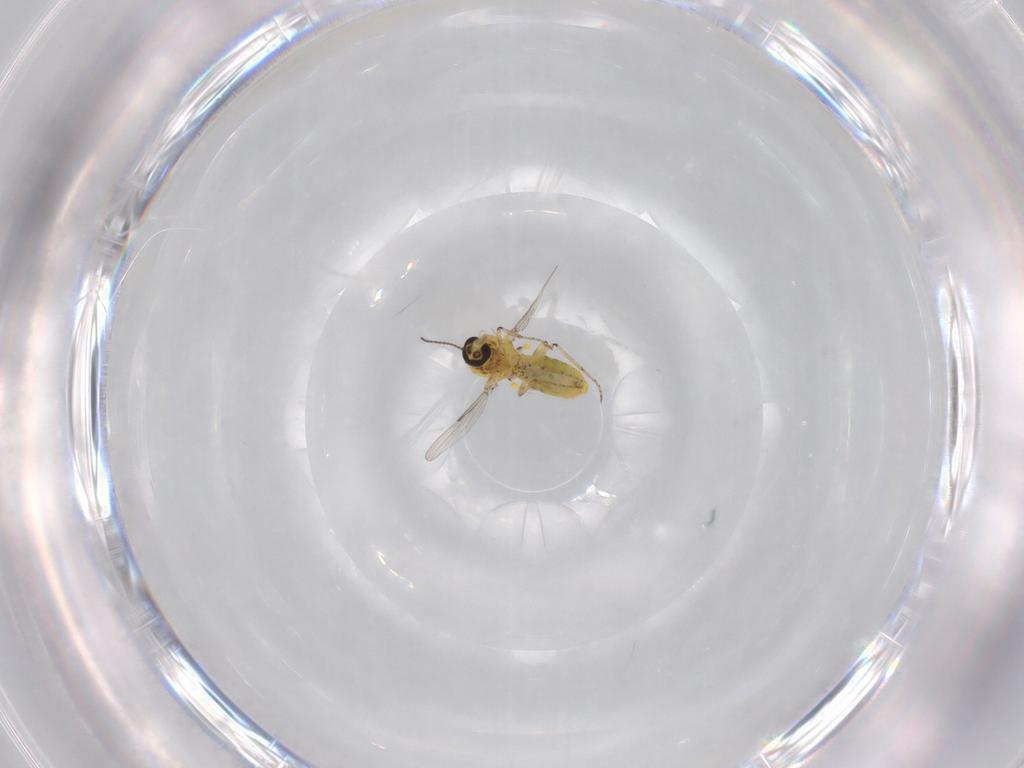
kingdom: Animalia
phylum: Arthropoda
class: Insecta
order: Diptera
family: Ceratopogonidae
